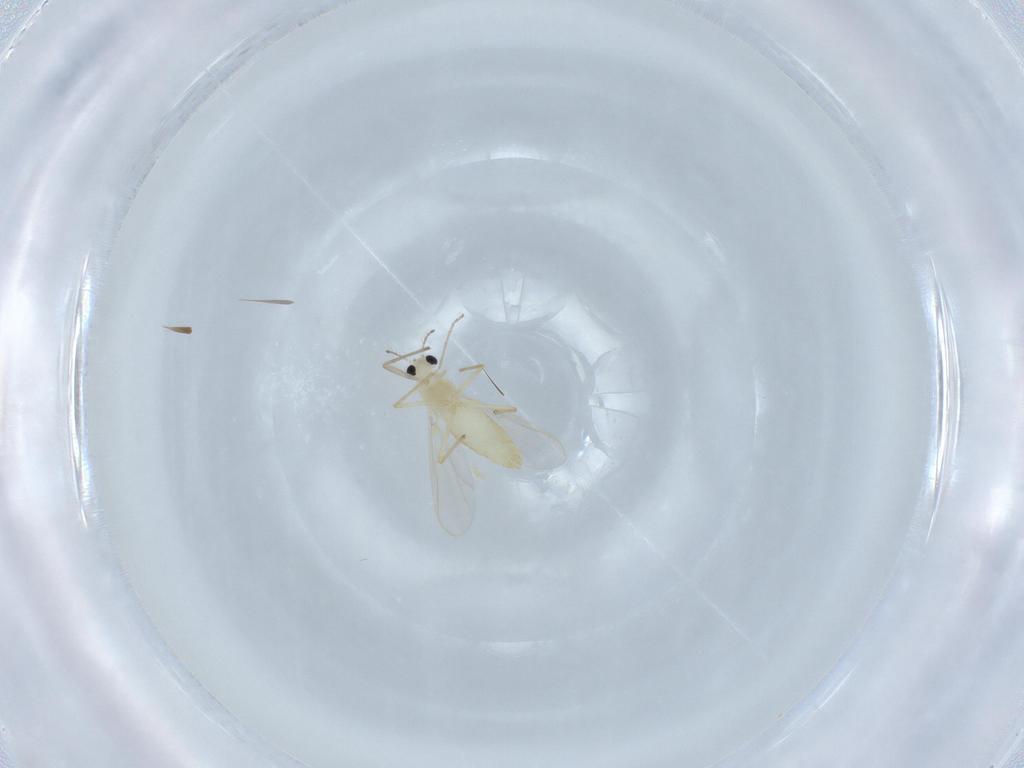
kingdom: Animalia
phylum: Arthropoda
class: Insecta
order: Diptera
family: Chironomidae
